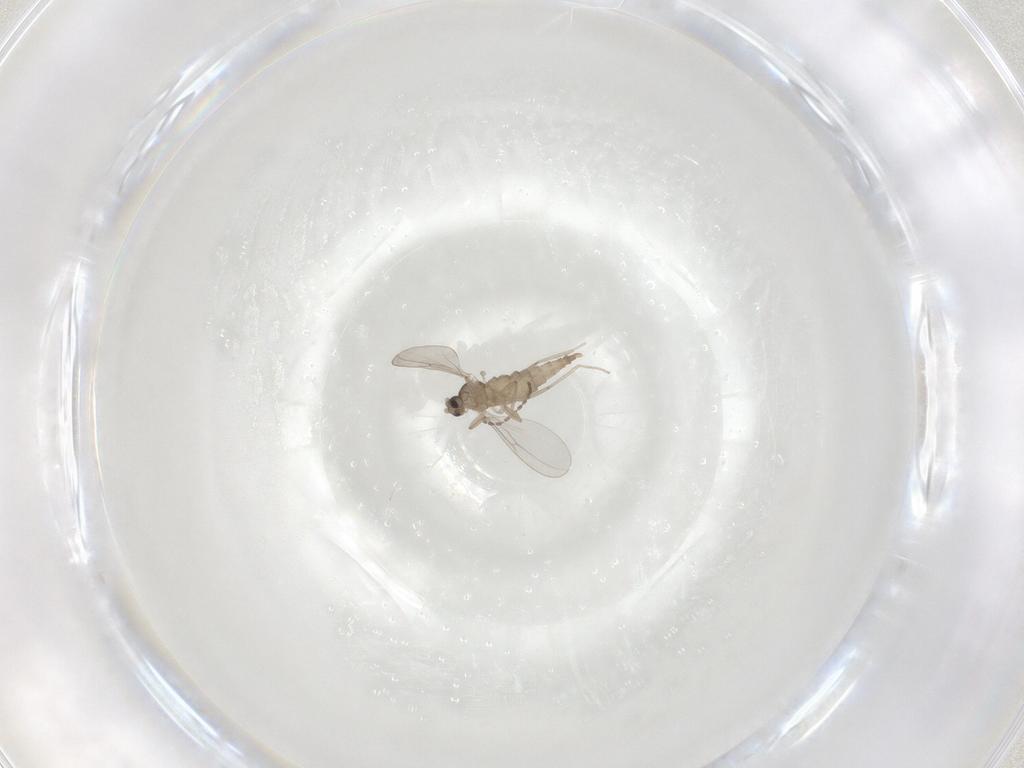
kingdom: Animalia
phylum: Arthropoda
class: Insecta
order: Diptera
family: Cecidomyiidae
